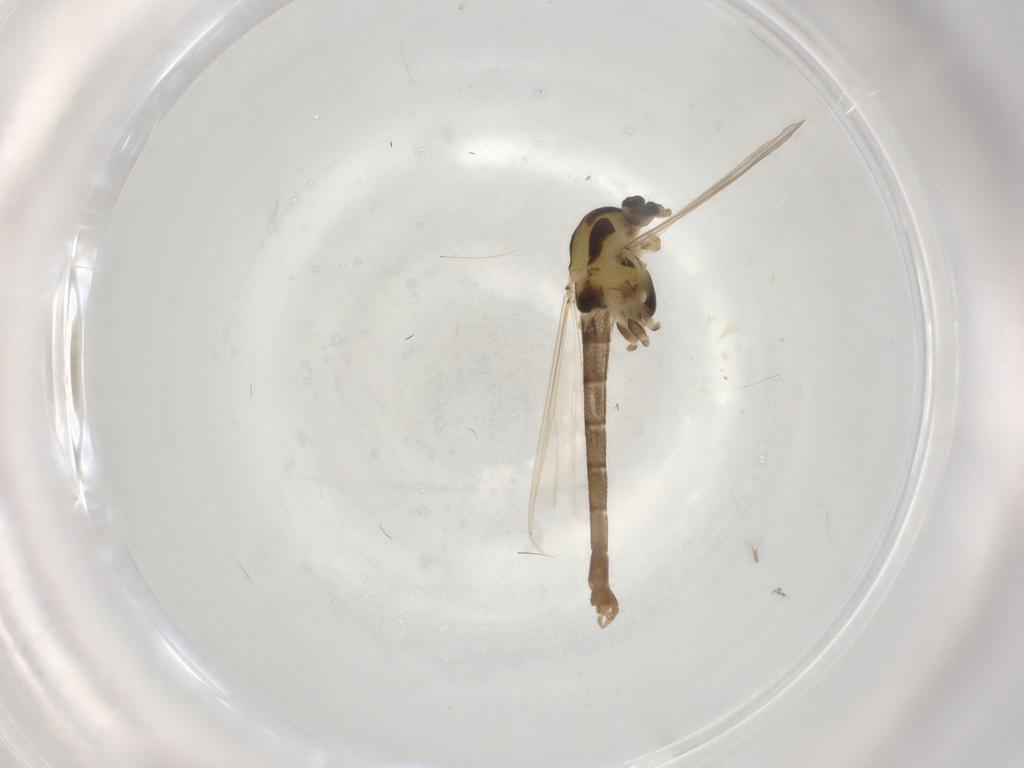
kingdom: Animalia
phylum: Arthropoda
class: Insecta
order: Diptera
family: Chironomidae
